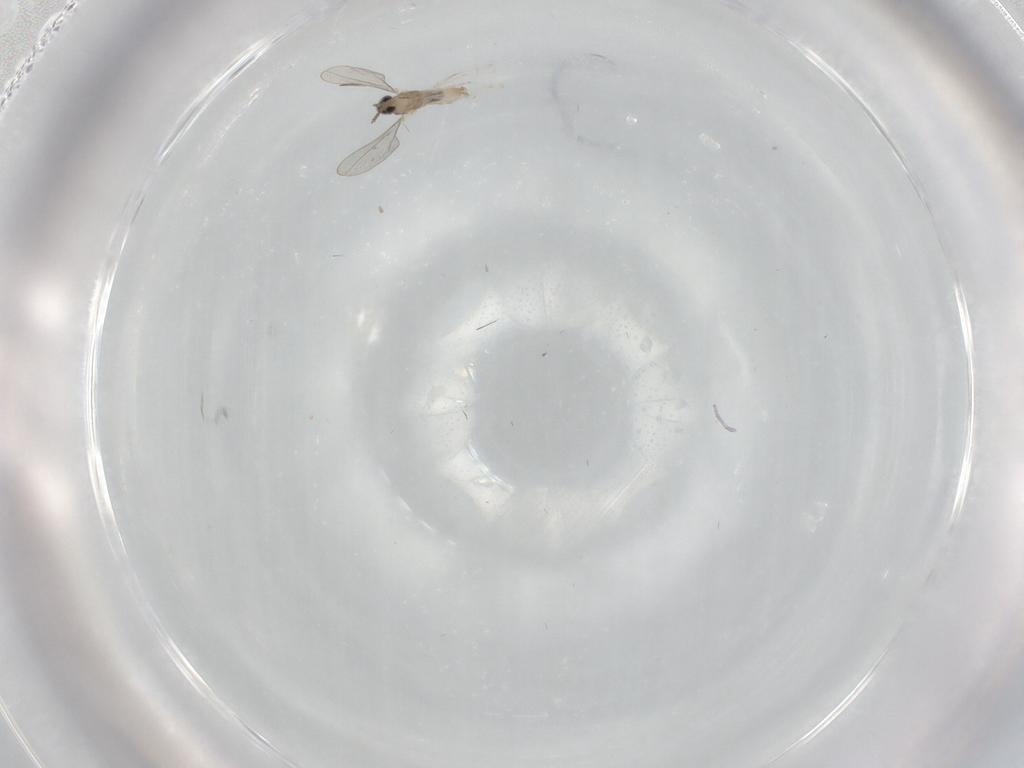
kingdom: Animalia
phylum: Arthropoda
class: Insecta
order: Diptera
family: Cecidomyiidae
